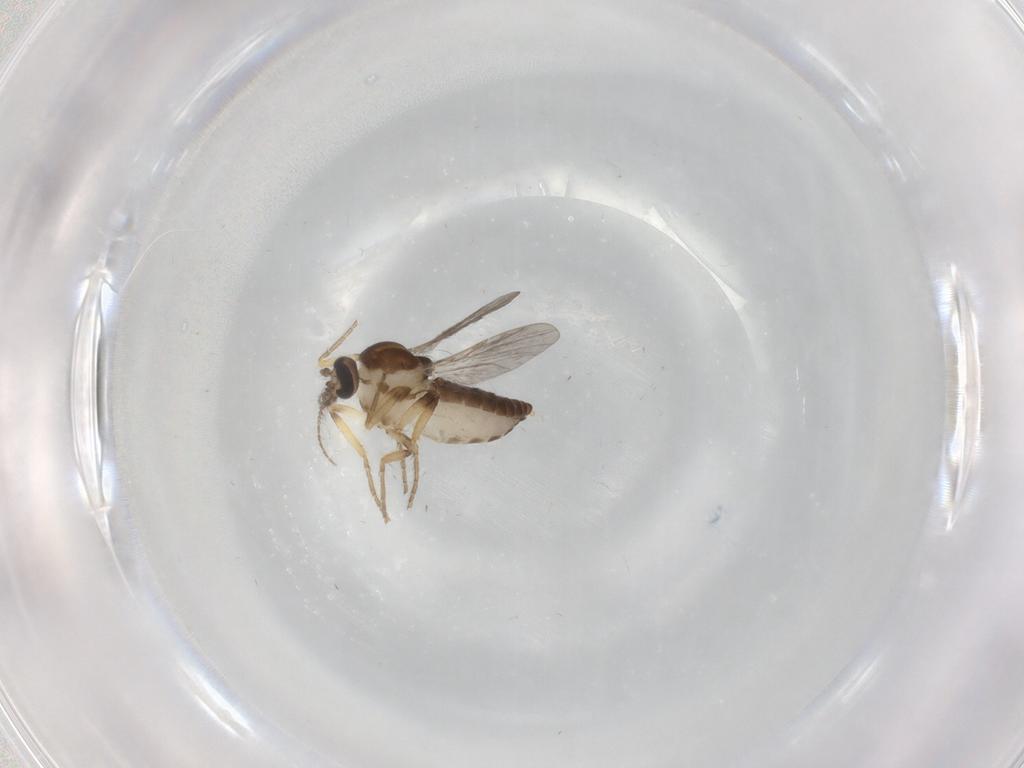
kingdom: Animalia
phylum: Arthropoda
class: Insecta
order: Diptera
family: Ceratopogonidae
